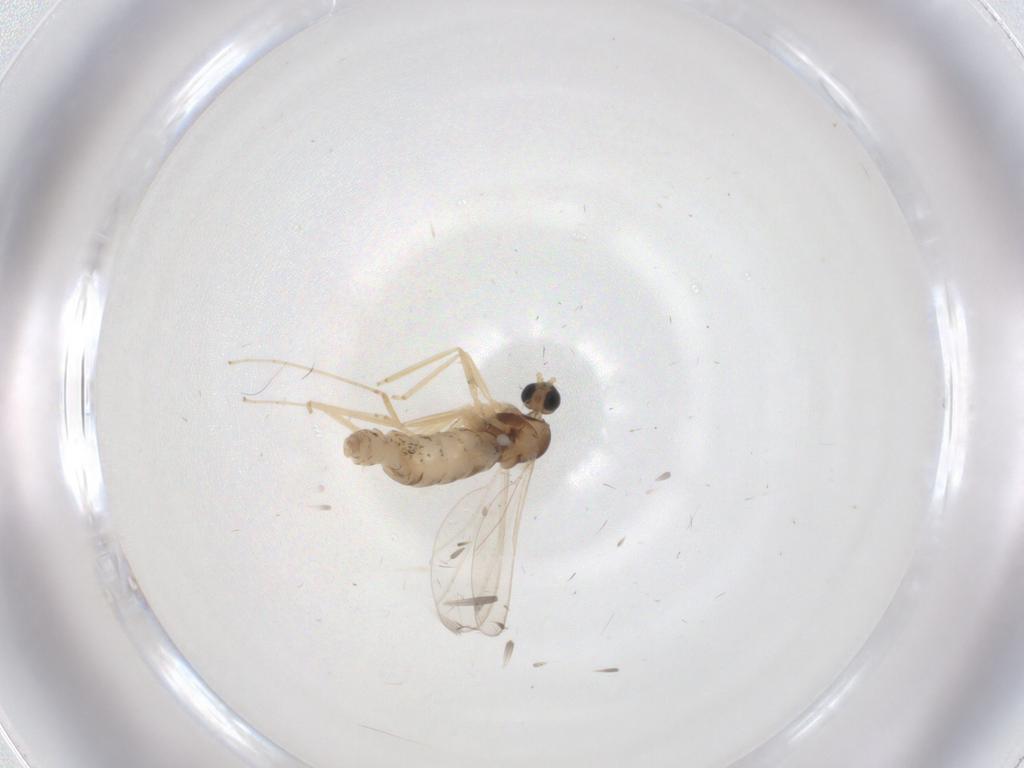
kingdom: Animalia
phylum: Arthropoda
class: Insecta
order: Diptera
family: Cecidomyiidae
